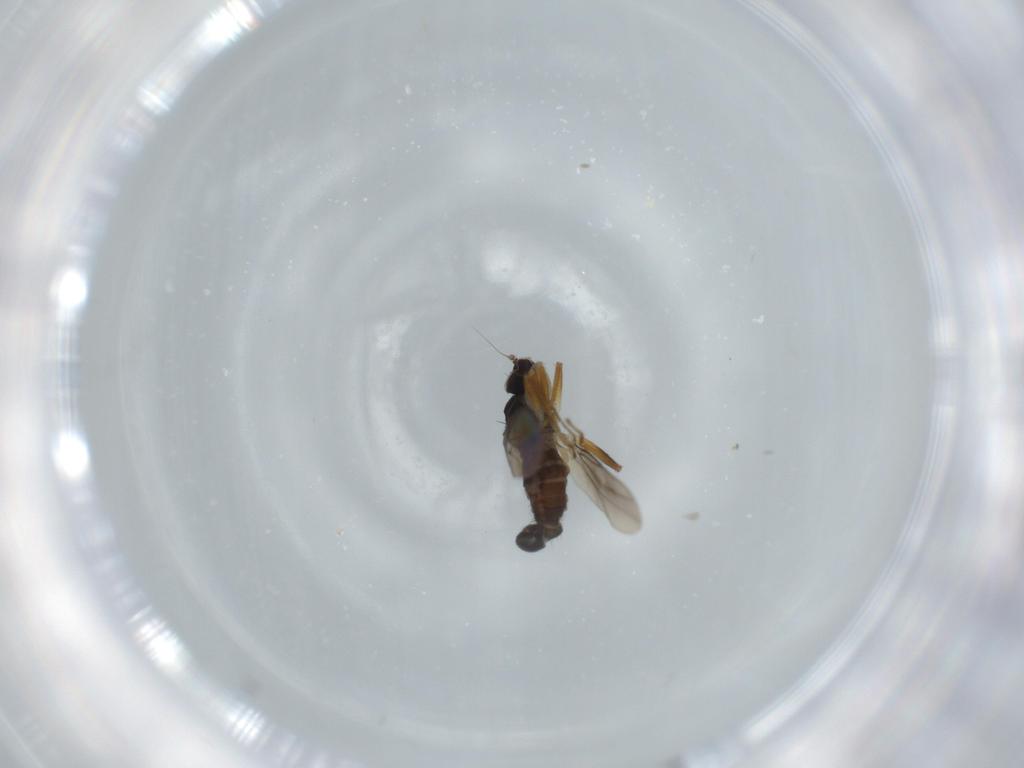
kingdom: Animalia
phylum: Arthropoda
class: Insecta
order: Diptera
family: Hybotidae
